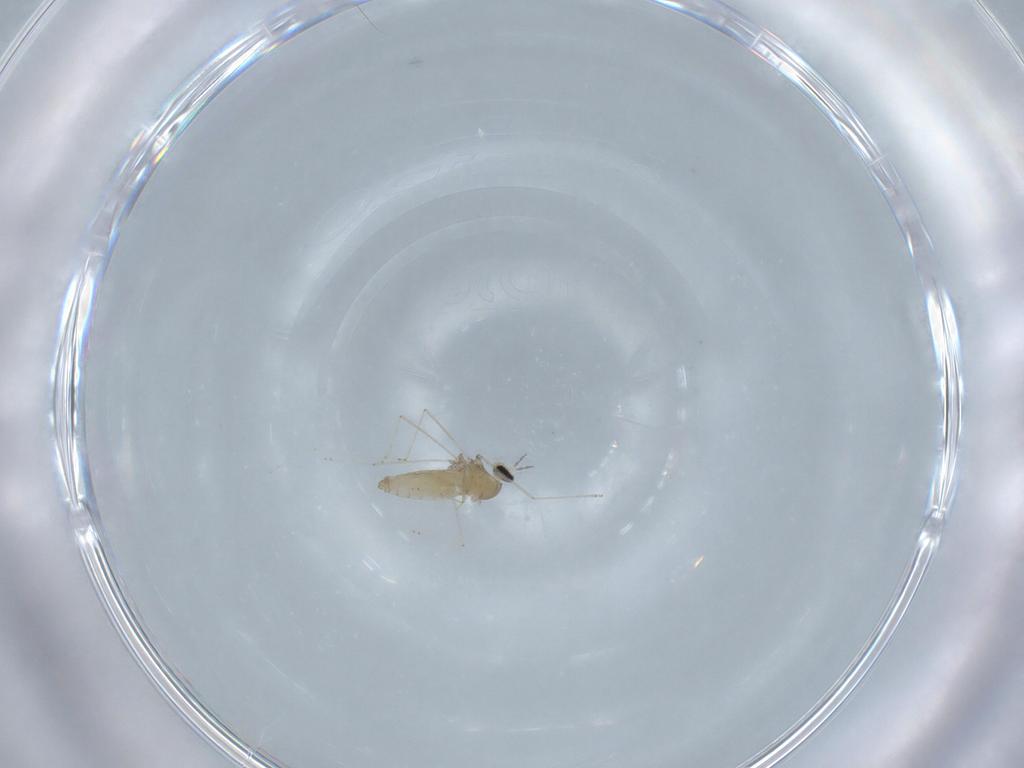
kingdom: Animalia
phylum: Arthropoda
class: Insecta
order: Diptera
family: Cecidomyiidae
